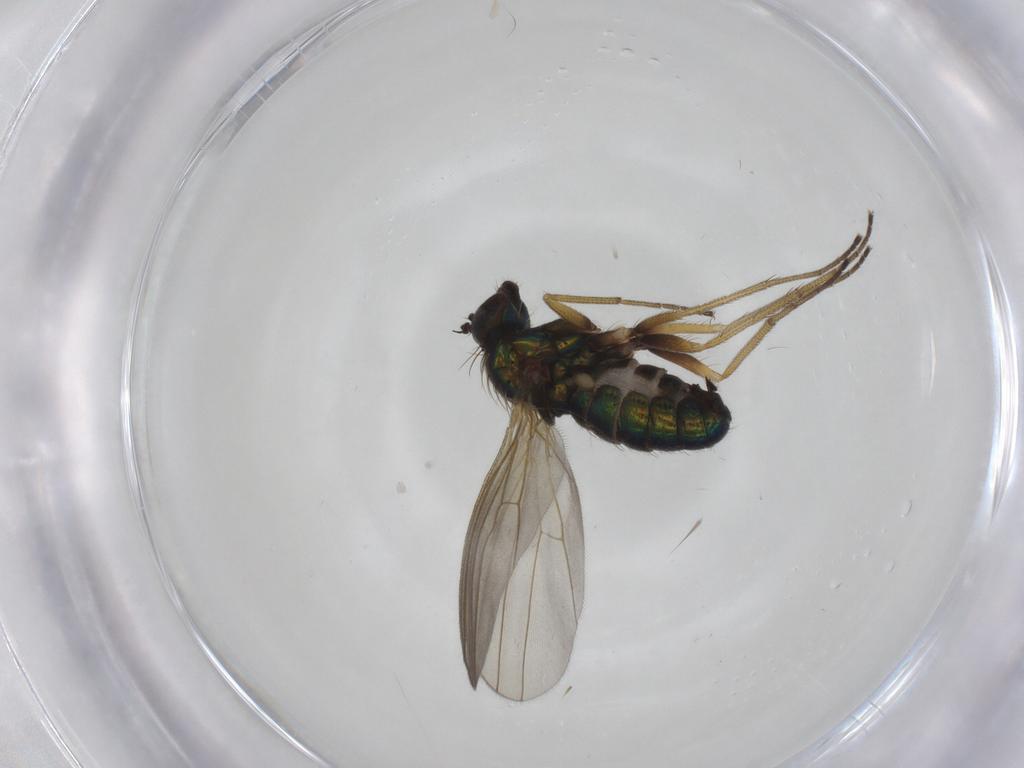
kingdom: Animalia
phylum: Arthropoda
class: Insecta
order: Diptera
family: Dolichopodidae
